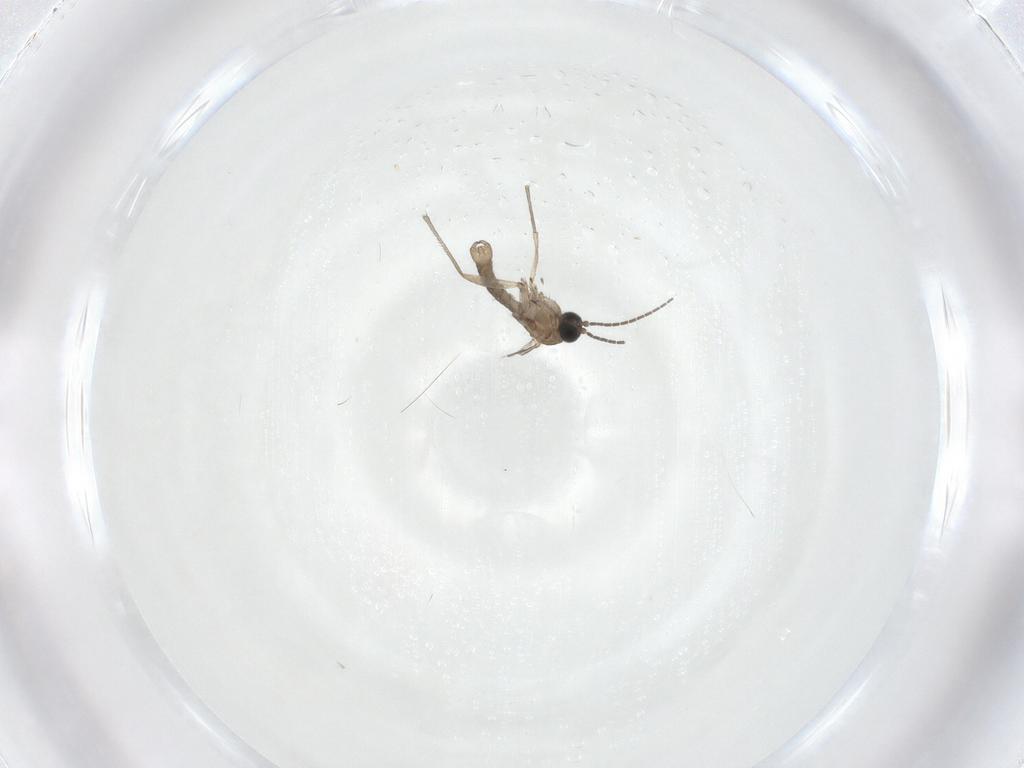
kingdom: Animalia
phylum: Arthropoda
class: Insecta
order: Diptera
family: Sciaridae
